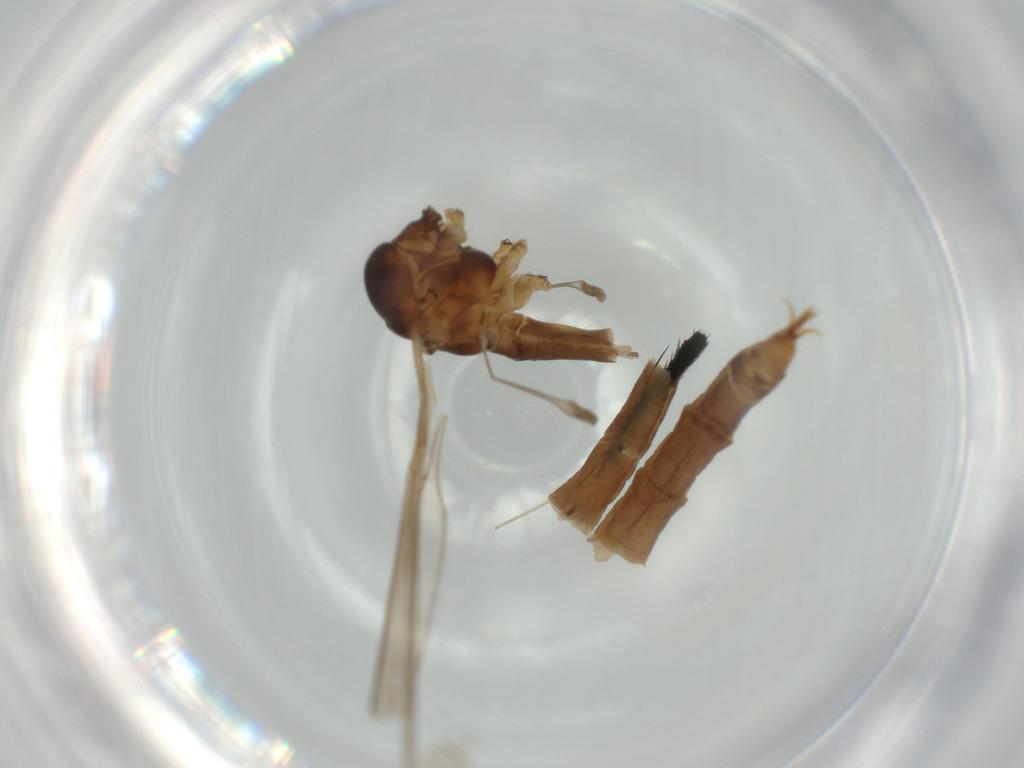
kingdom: Animalia
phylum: Arthropoda
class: Insecta
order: Diptera
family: Limoniidae
